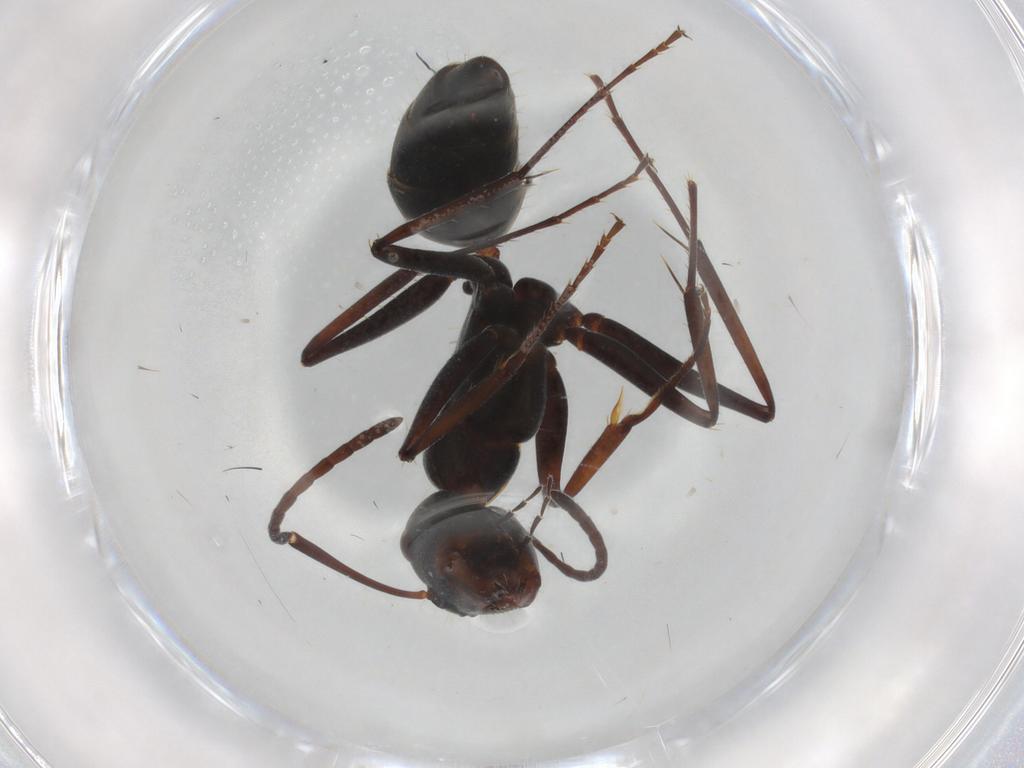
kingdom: Animalia
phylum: Arthropoda
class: Insecta
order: Hymenoptera
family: Formicidae
